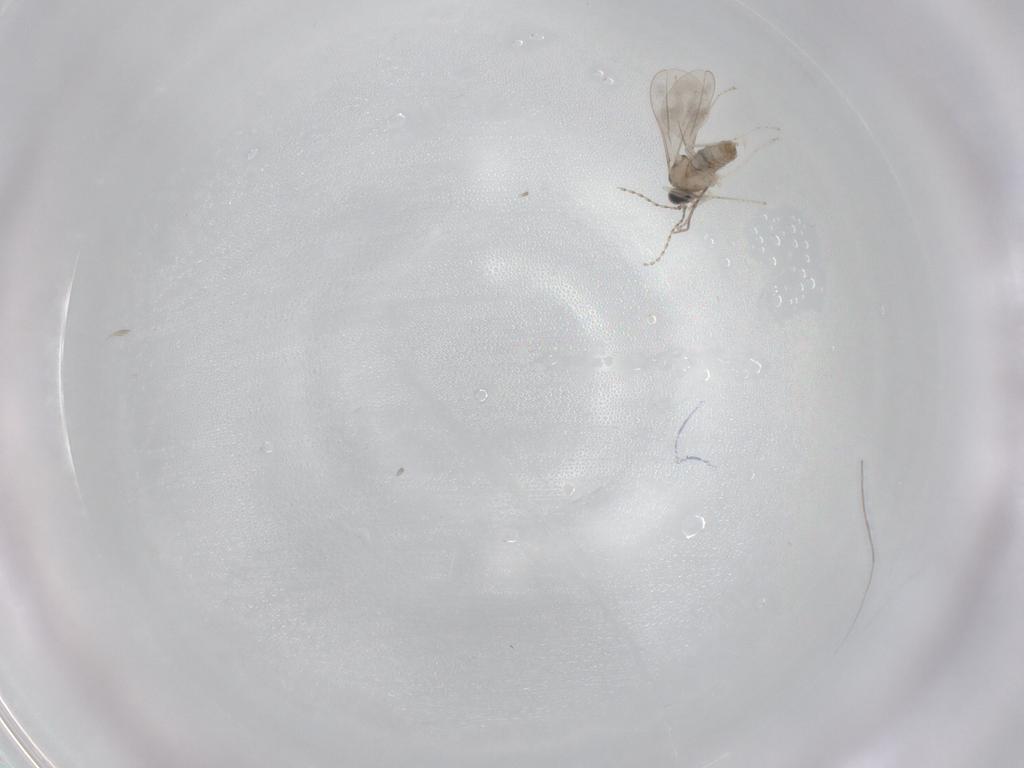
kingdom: Animalia
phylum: Arthropoda
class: Insecta
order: Diptera
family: Cecidomyiidae
